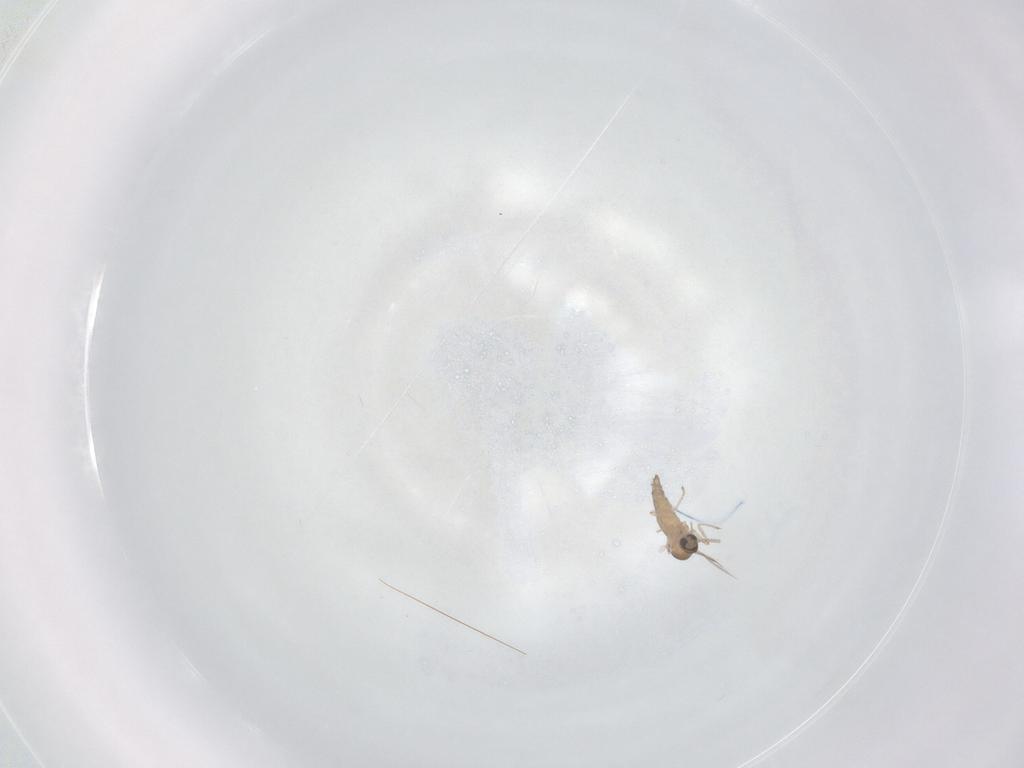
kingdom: Animalia
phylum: Arthropoda
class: Insecta
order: Diptera
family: Cecidomyiidae
